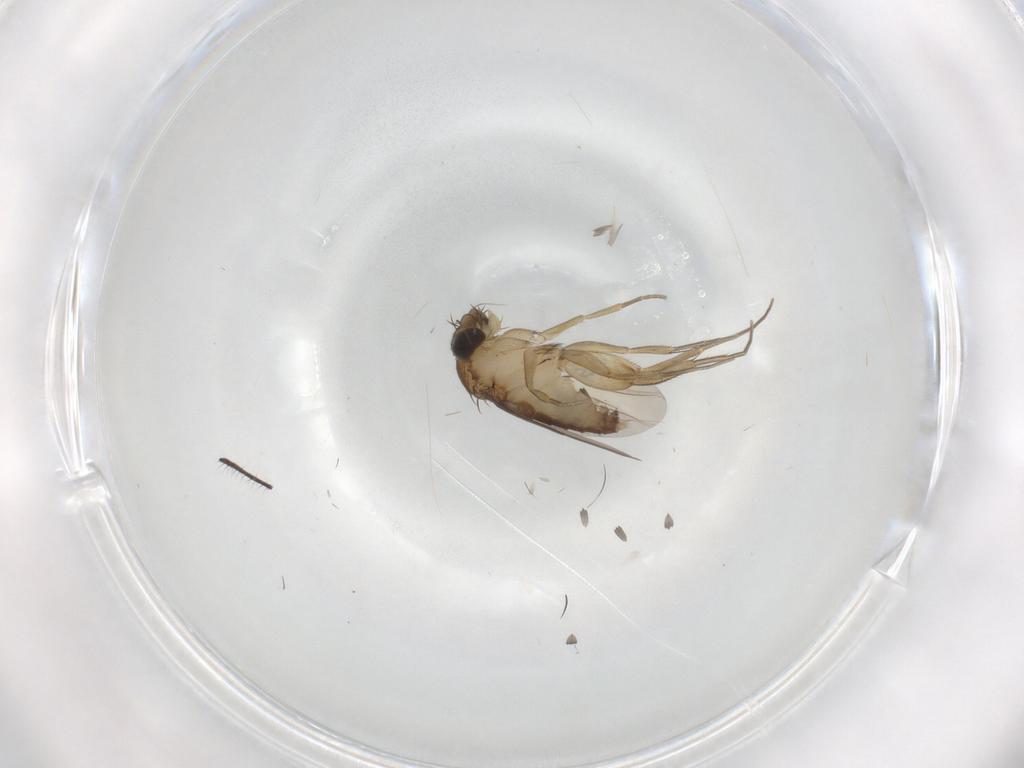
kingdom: Animalia
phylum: Arthropoda
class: Insecta
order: Diptera
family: Phoridae
